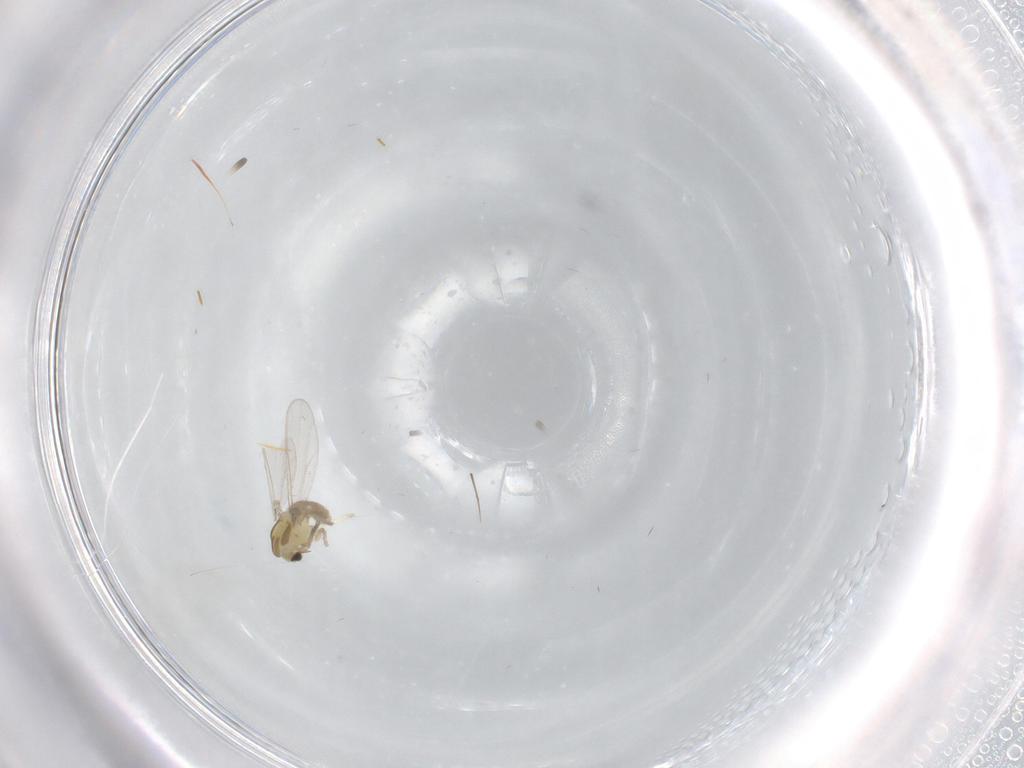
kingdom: Animalia
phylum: Arthropoda
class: Insecta
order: Diptera
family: Chironomidae
